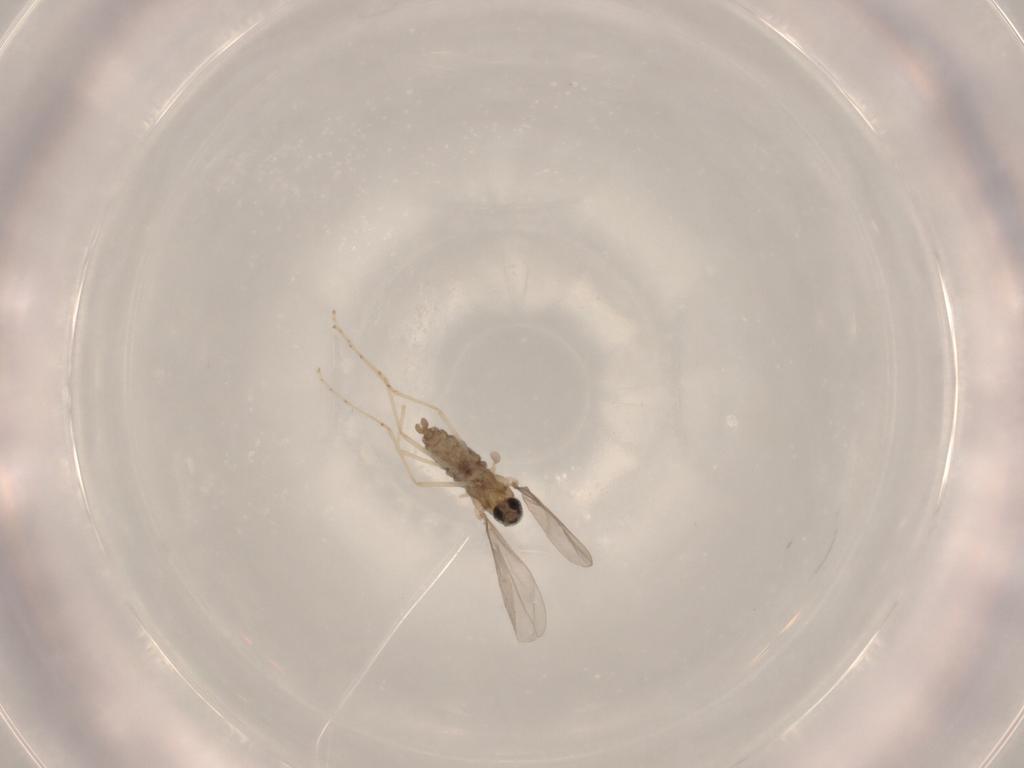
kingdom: Animalia
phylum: Arthropoda
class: Insecta
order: Diptera
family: Cecidomyiidae
